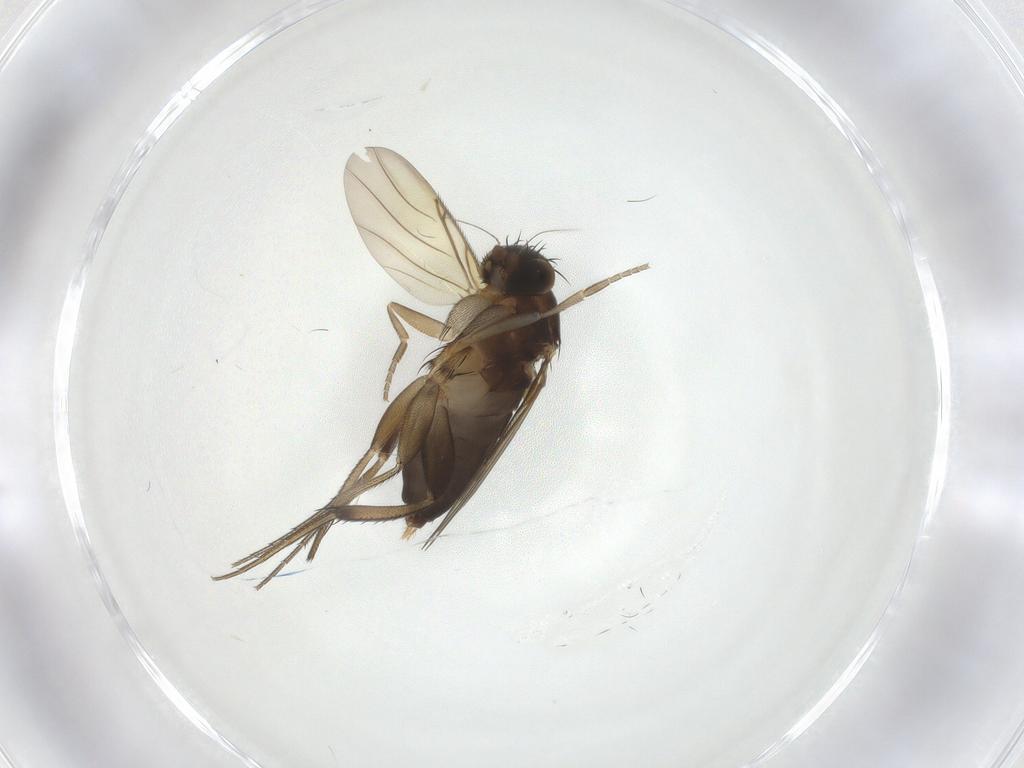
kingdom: Animalia
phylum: Arthropoda
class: Insecta
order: Diptera
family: Phoridae
